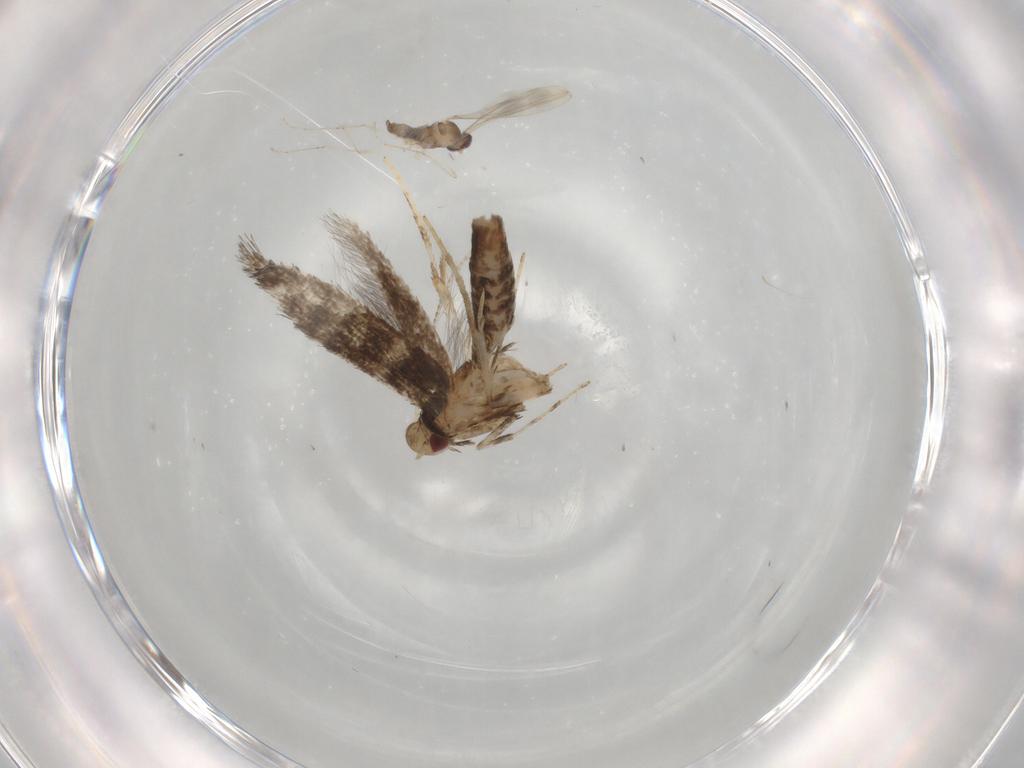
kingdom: Animalia
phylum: Arthropoda
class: Insecta
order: Lepidoptera
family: Gracillariidae
